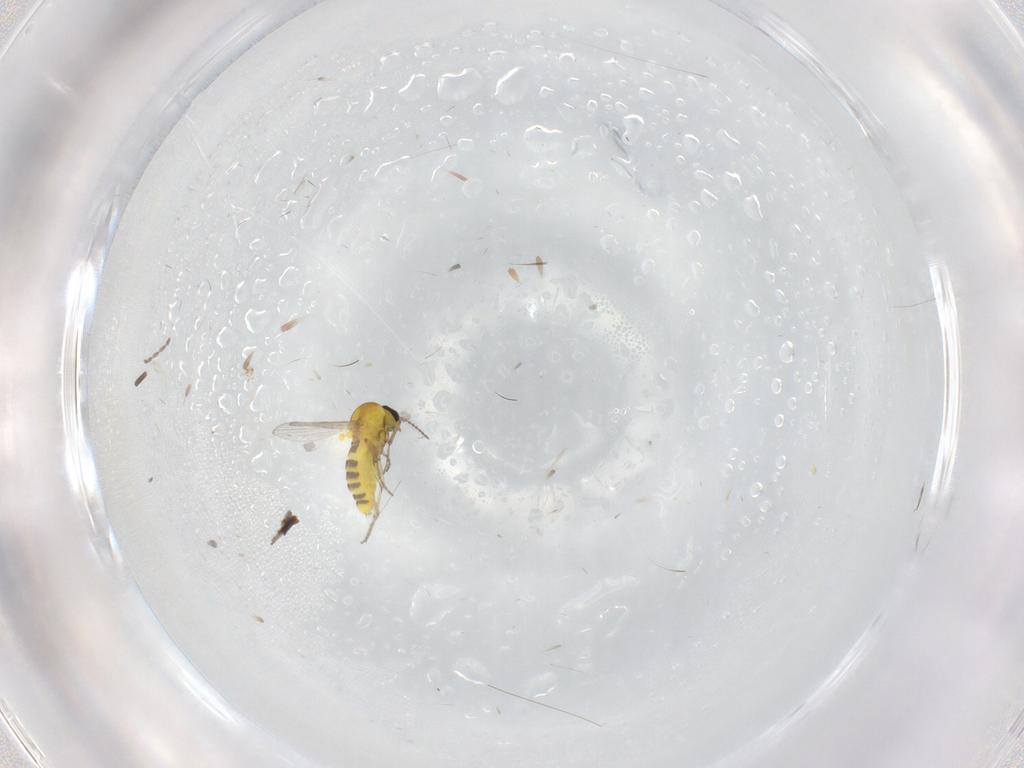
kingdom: Animalia
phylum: Arthropoda
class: Insecta
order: Diptera
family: Ceratopogonidae
